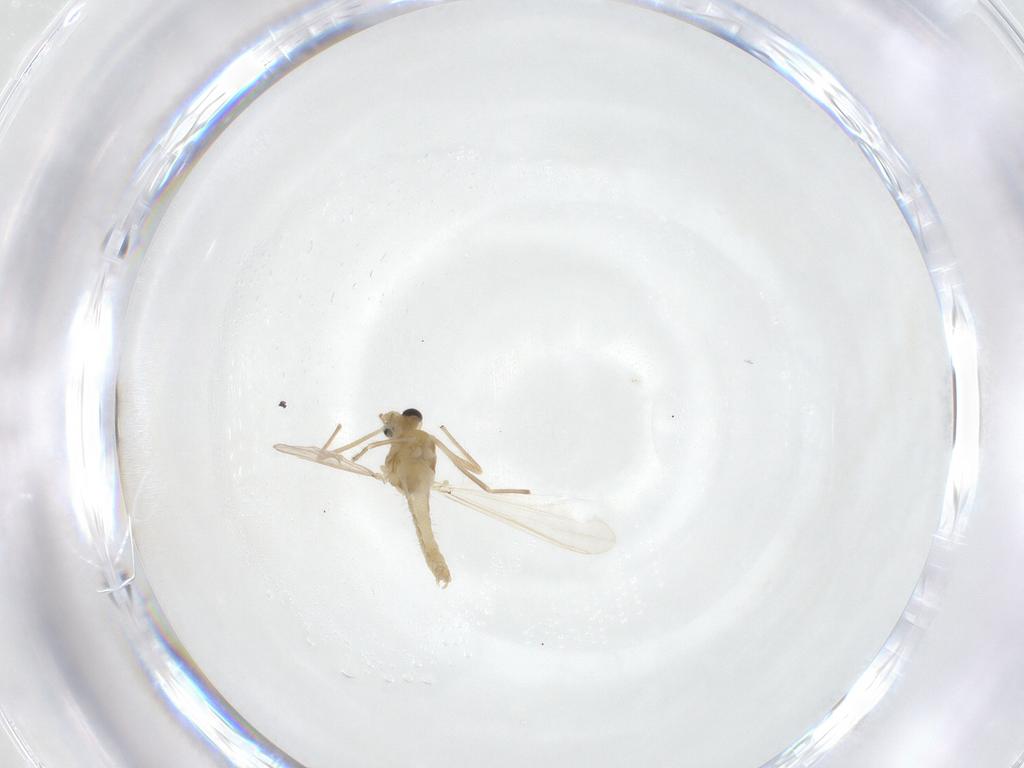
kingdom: Animalia
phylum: Arthropoda
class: Insecta
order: Diptera
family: Chironomidae
